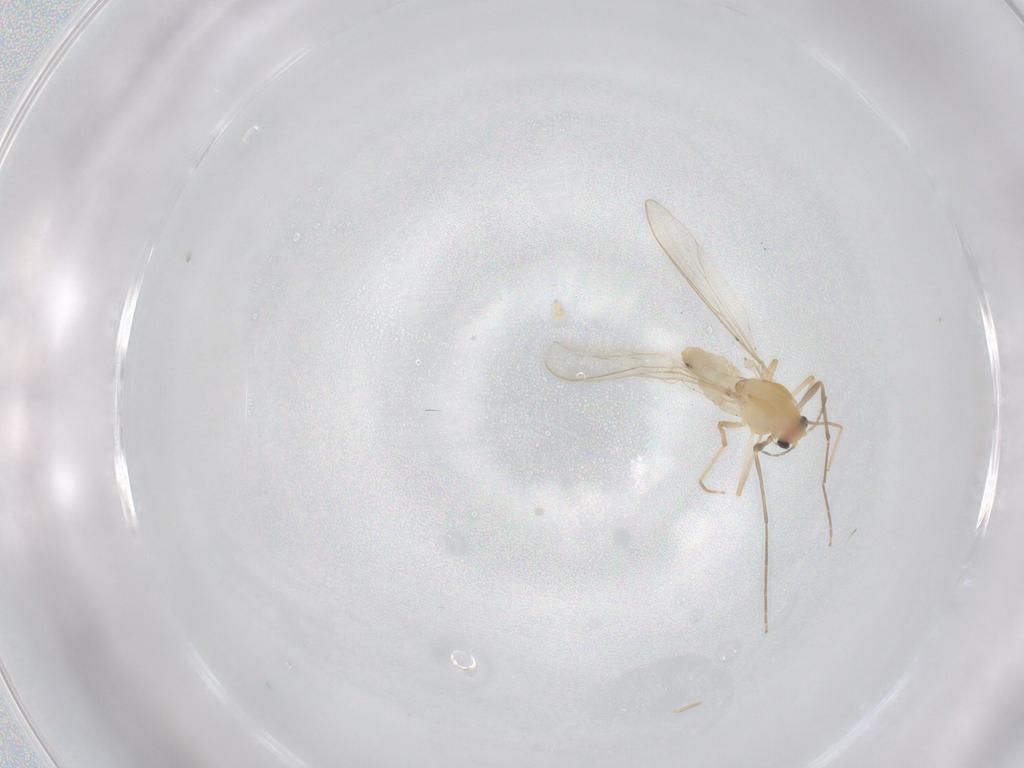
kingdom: Animalia
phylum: Arthropoda
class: Insecta
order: Diptera
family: Chironomidae
